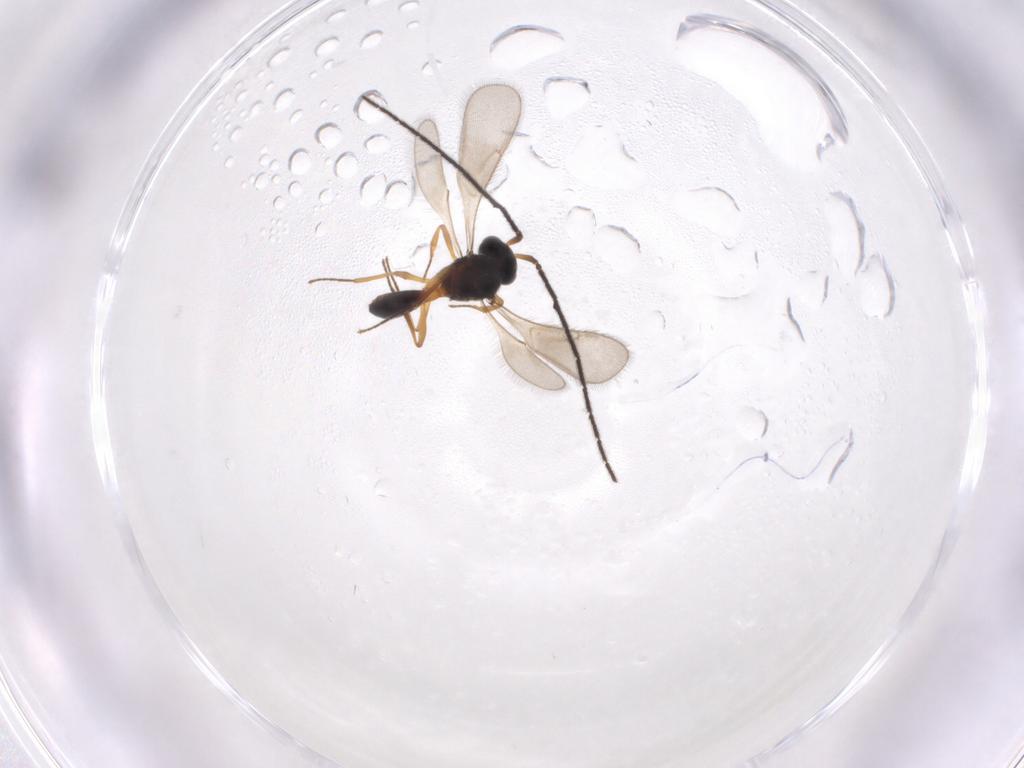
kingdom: Animalia
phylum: Arthropoda
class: Insecta
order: Hymenoptera
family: Scelionidae
